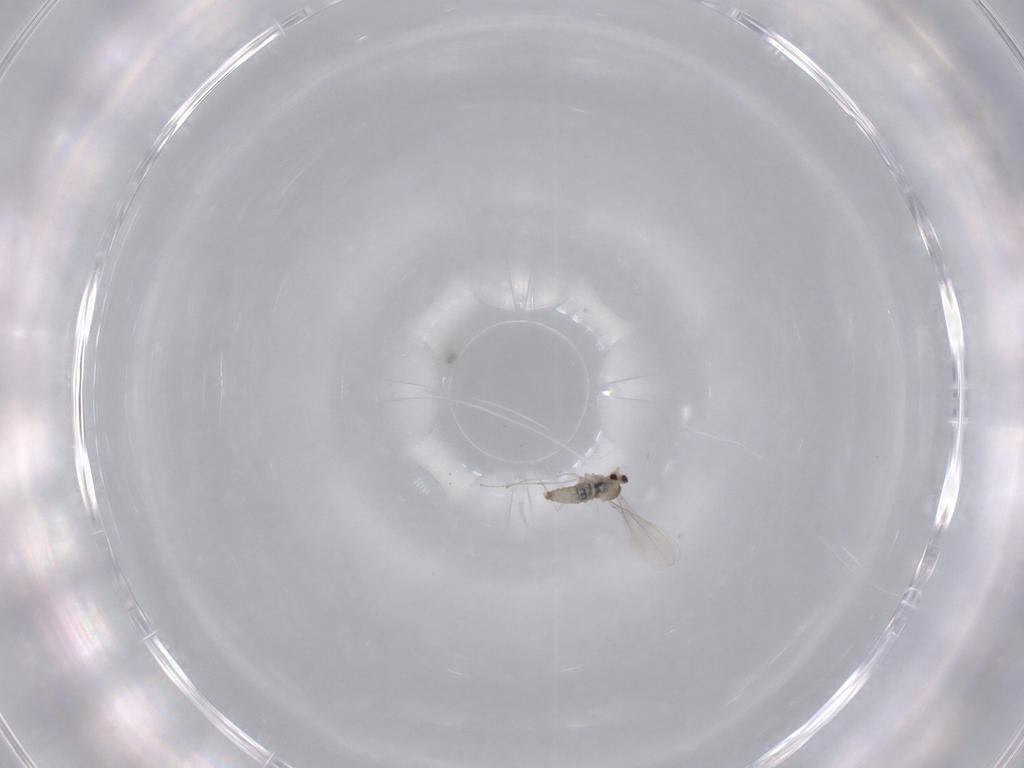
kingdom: Animalia
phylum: Arthropoda
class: Insecta
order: Diptera
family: Cecidomyiidae
